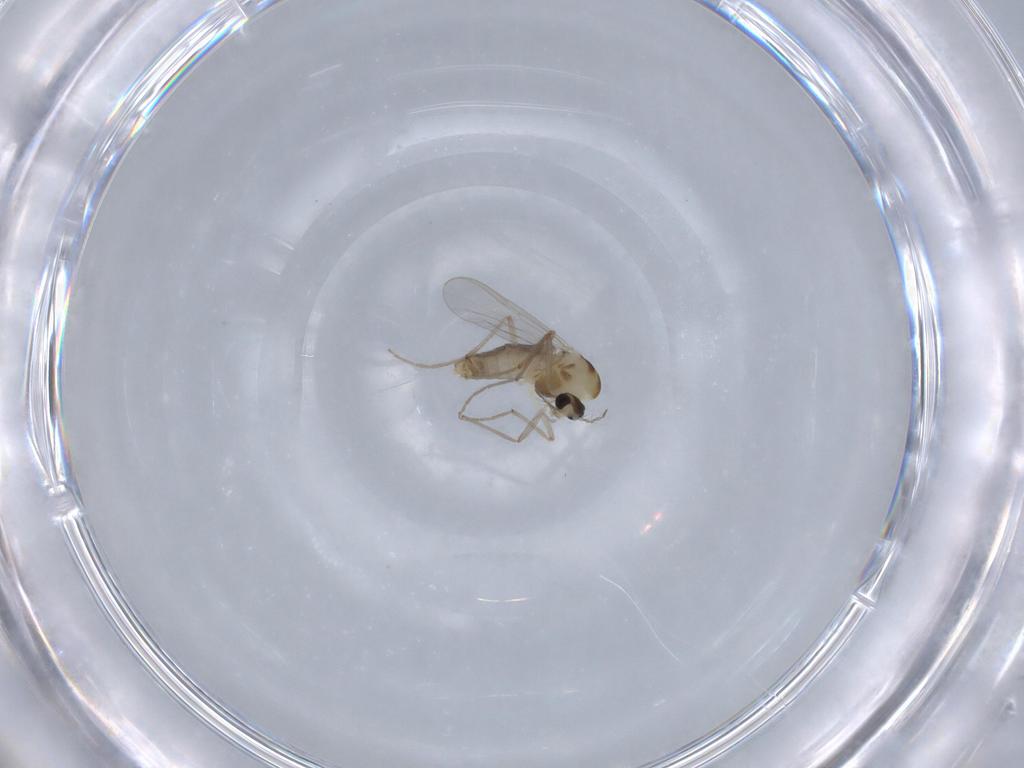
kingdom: Animalia
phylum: Arthropoda
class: Insecta
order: Diptera
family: Chironomidae
